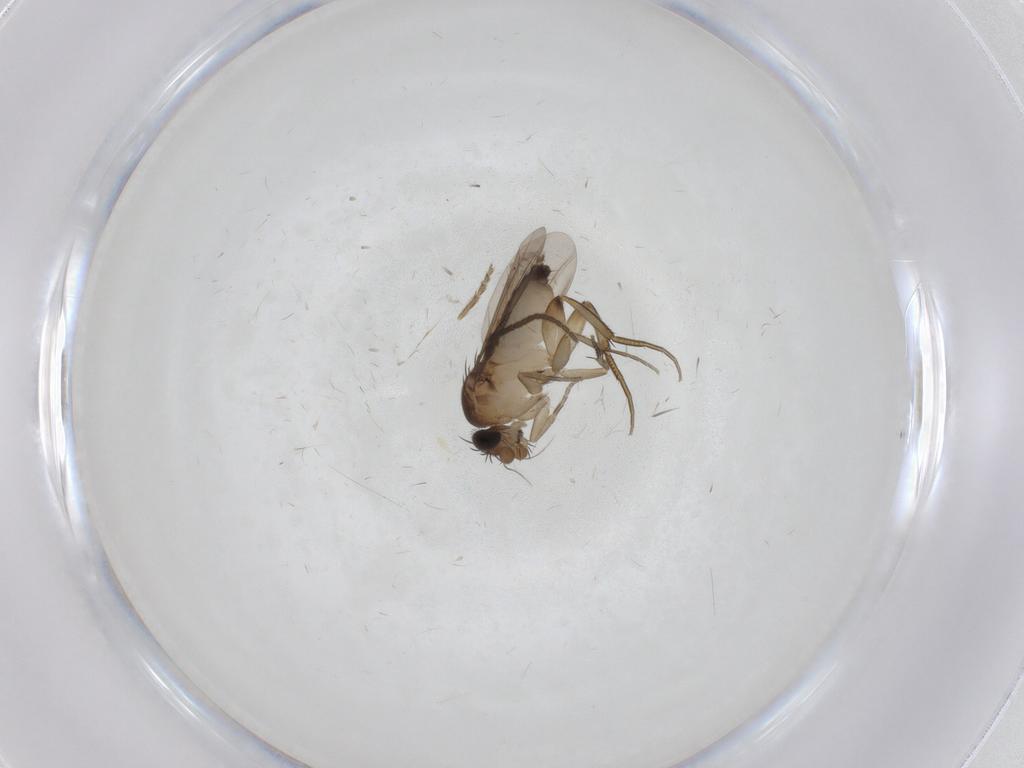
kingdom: Animalia
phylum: Arthropoda
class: Insecta
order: Diptera
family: Phoridae
